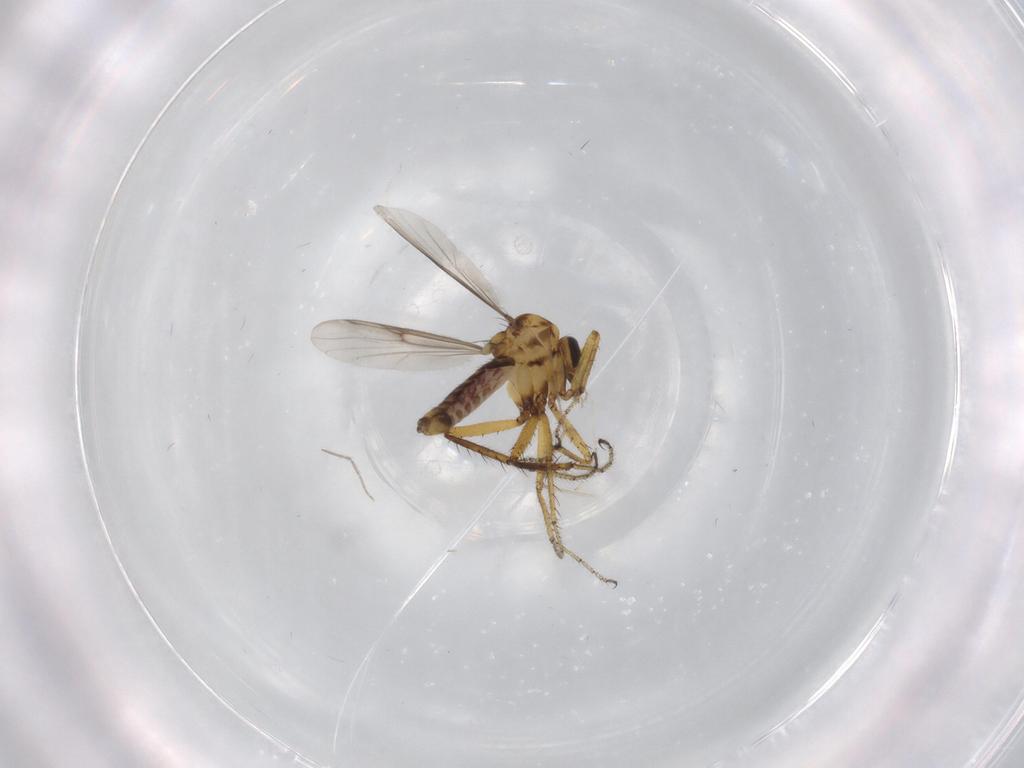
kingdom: Animalia
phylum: Arthropoda
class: Insecta
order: Diptera
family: Ceratopogonidae
